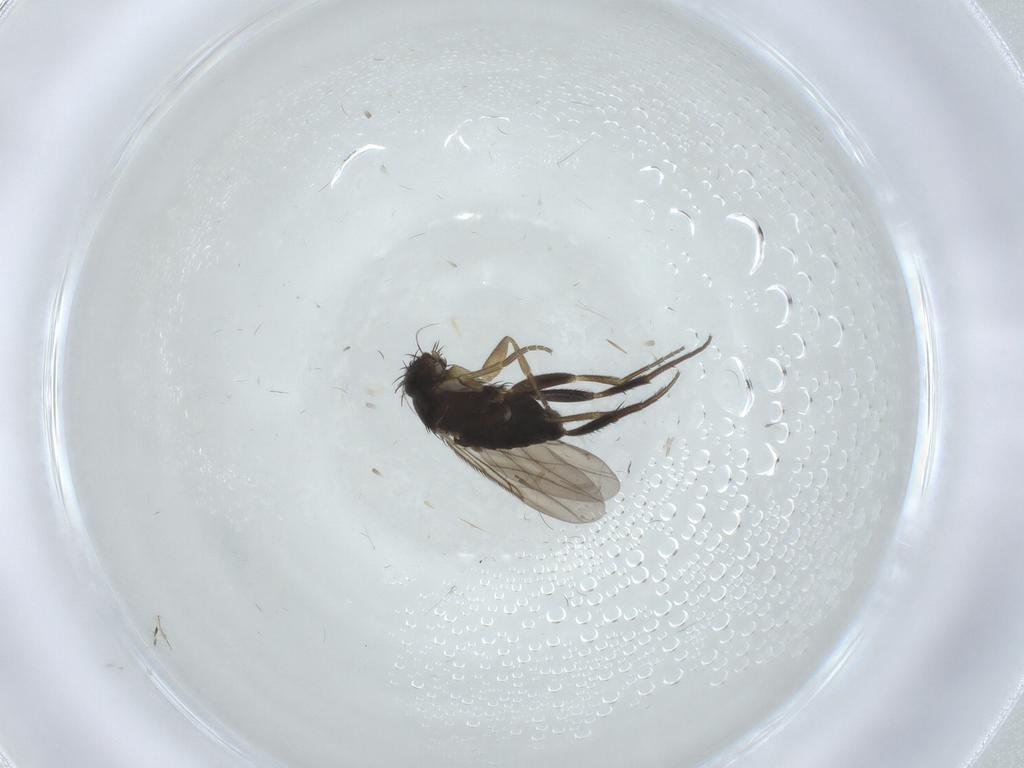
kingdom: Animalia
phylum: Arthropoda
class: Insecta
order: Diptera
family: Phoridae
